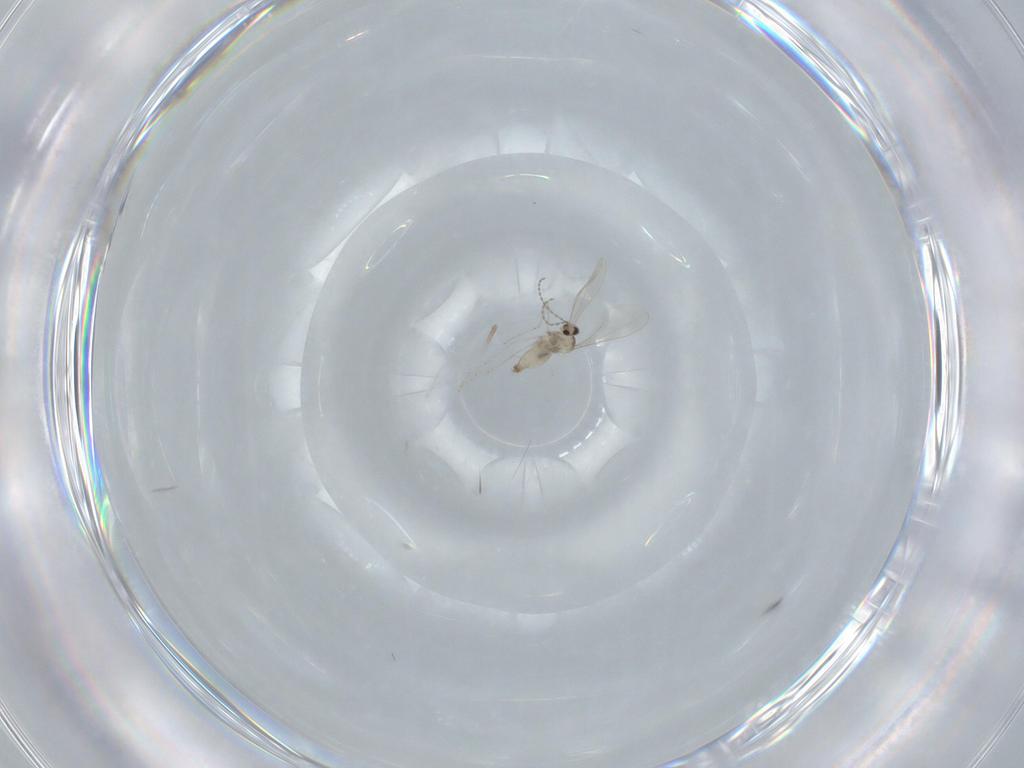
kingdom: Animalia
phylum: Arthropoda
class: Insecta
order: Diptera
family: Cecidomyiidae
